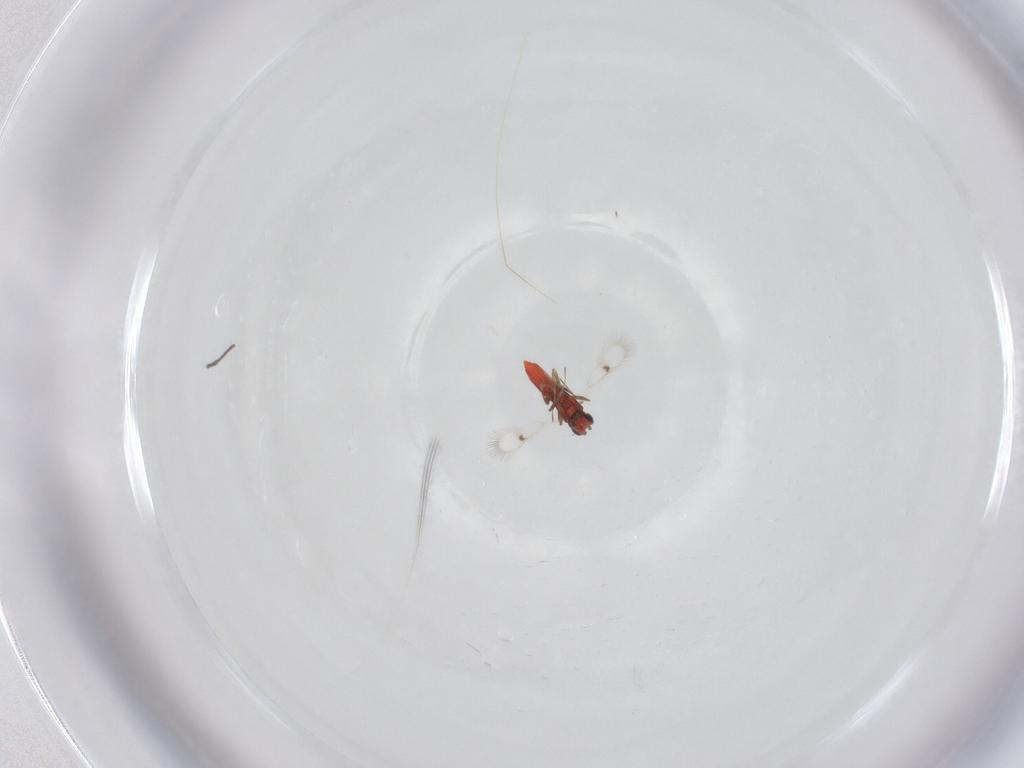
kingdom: Animalia
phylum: Arthropoda
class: Insecta
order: Hymenoptera
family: Trichogrammatidae
